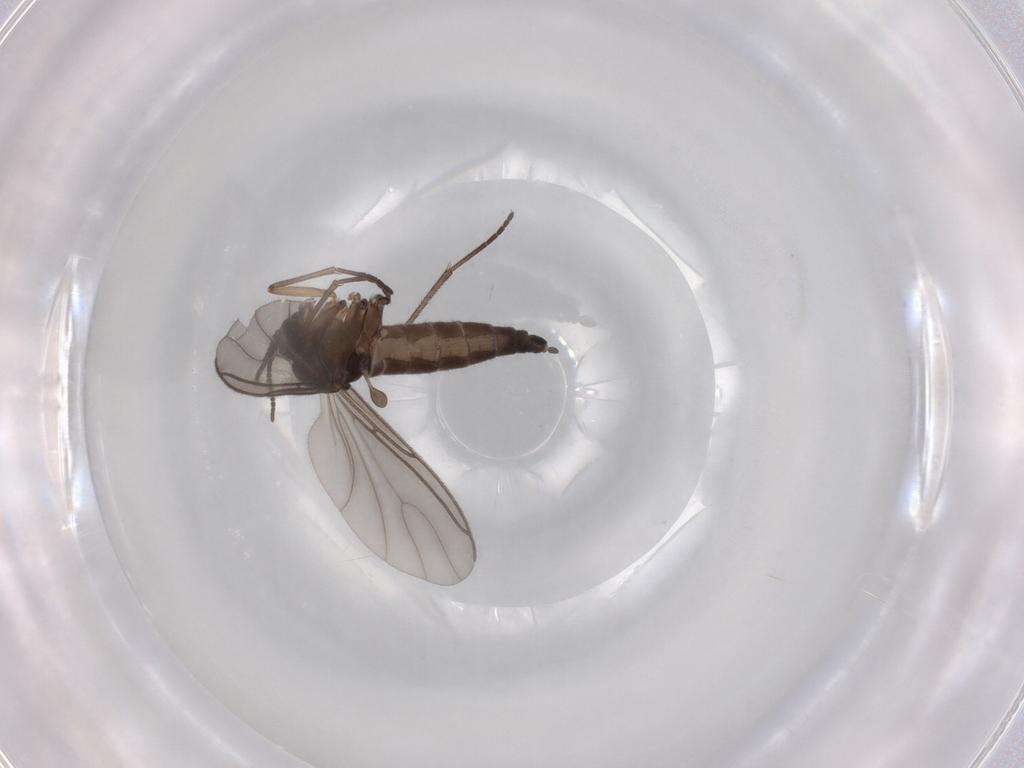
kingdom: Animalia
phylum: Arthropoda
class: Insecta
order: Diptera
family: Sciaridae
